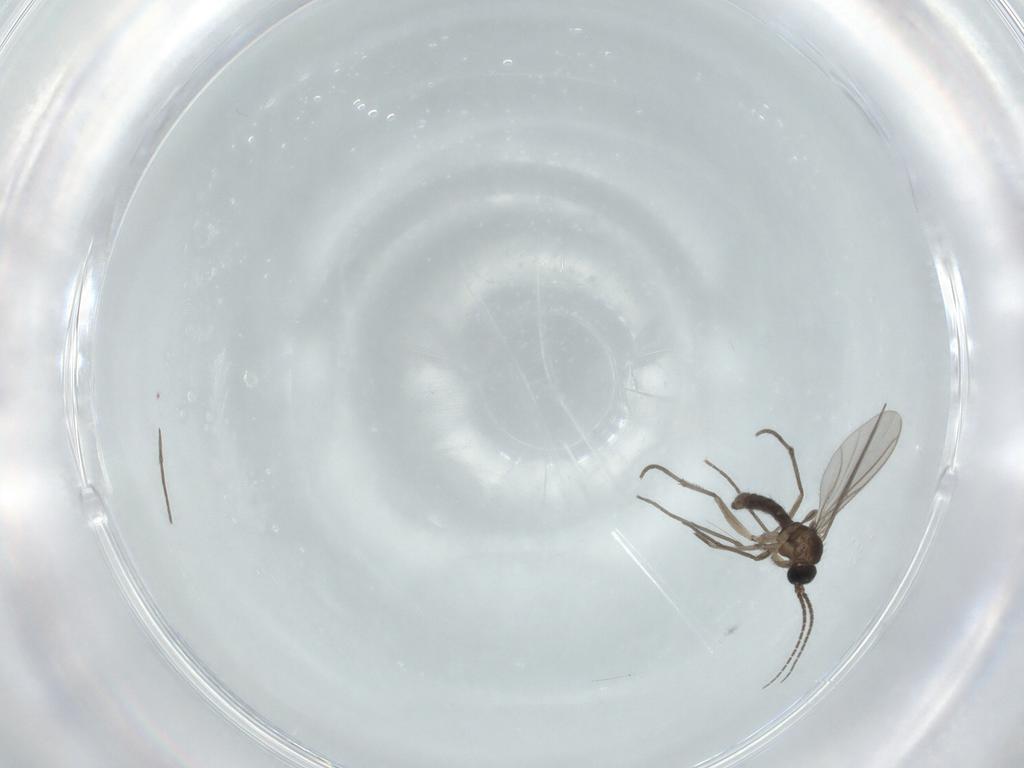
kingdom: Animalia
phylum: Arthropoda
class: Insecta
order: Diptera
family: Sciaridae
